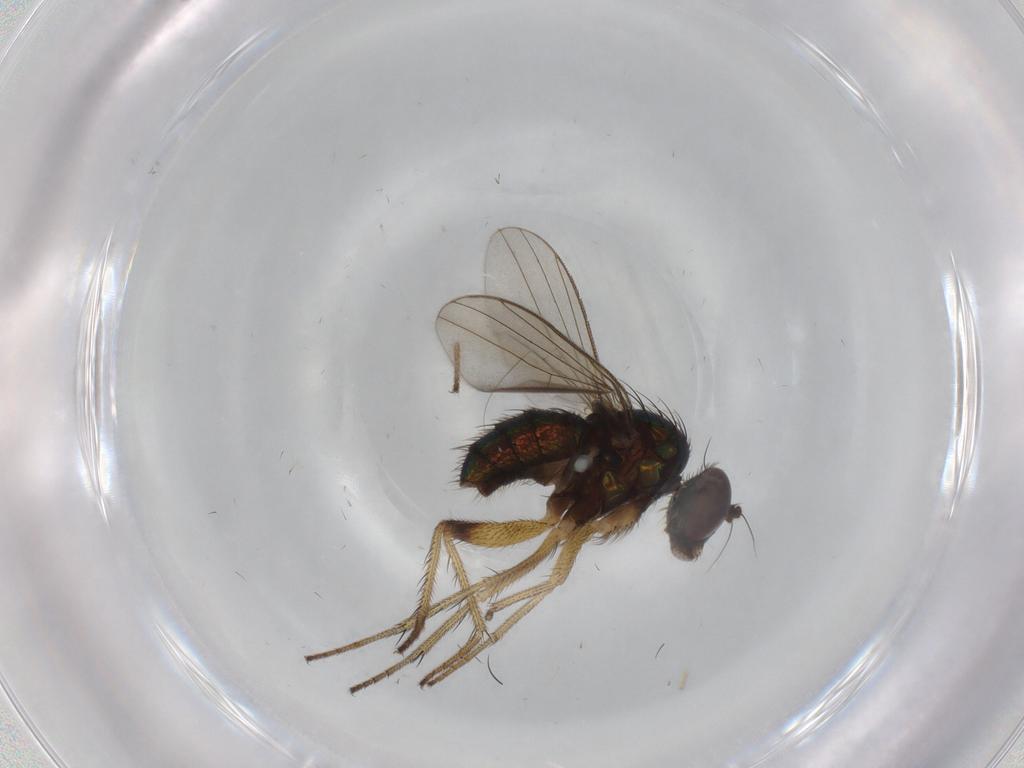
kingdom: Animalia
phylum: Arthropoda
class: Insecta
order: Diptera
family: Dolichopodidae
